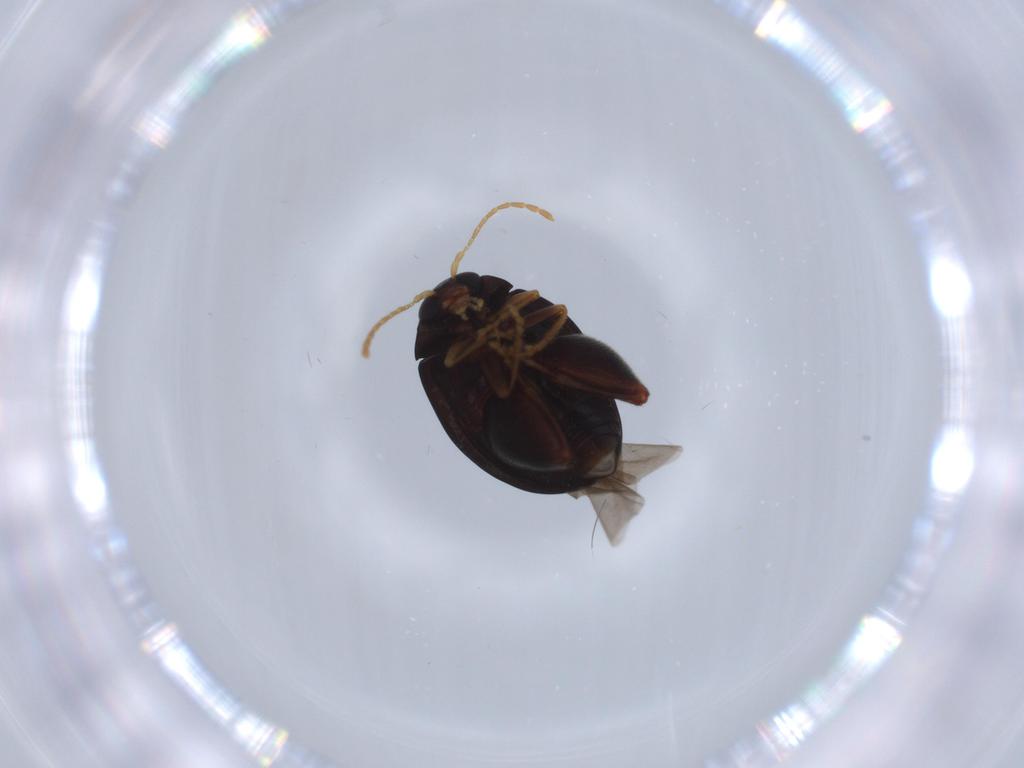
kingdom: Animalia
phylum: Arthropoda
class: Insecta
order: Coleoptera
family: Chrysomelidae
